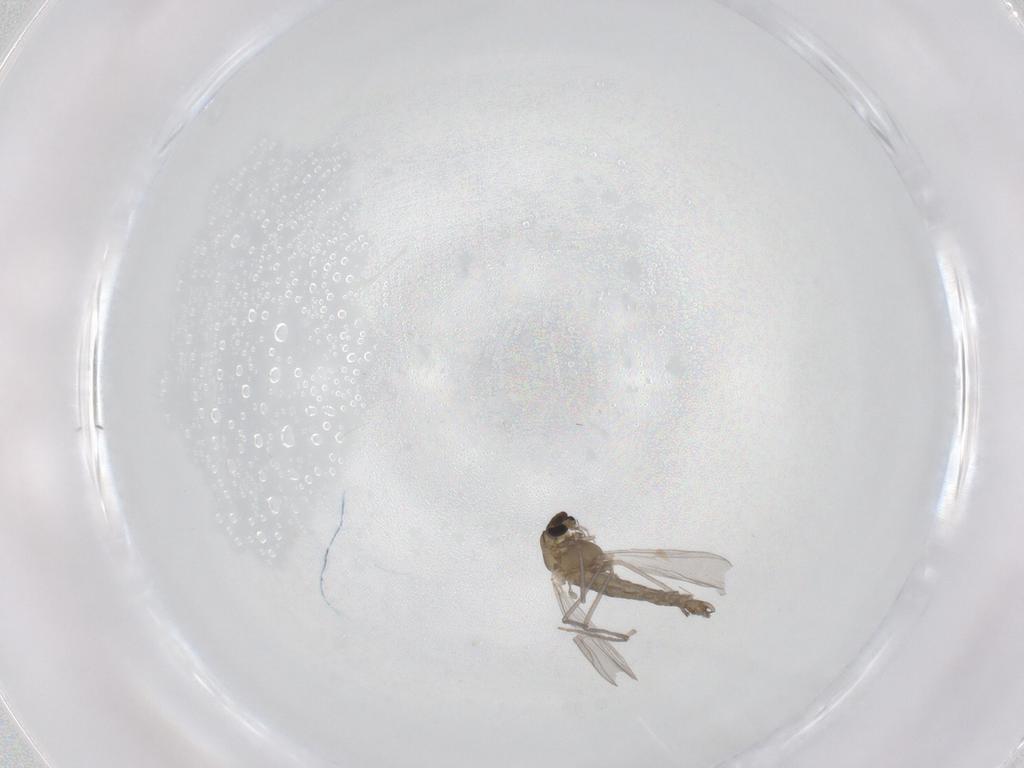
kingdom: Animalia
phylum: Arthropoda
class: Insecta
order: Diptera
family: Chironomidae
